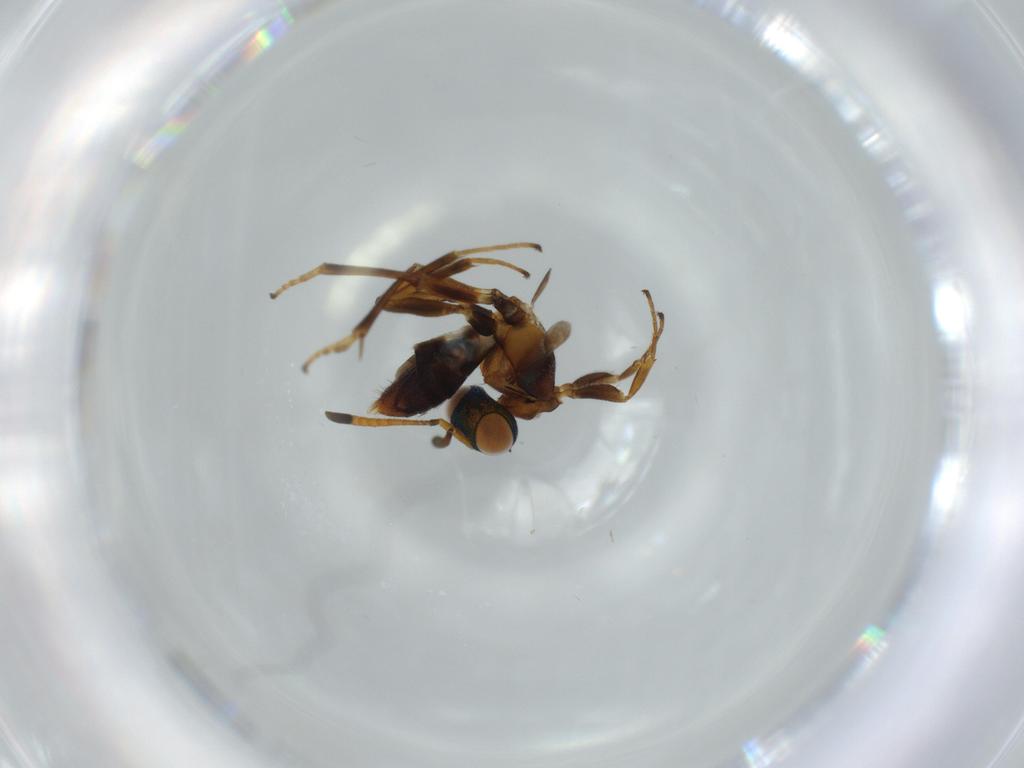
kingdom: Animalia
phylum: Arthropoda
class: Insecta
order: Hymenoptera
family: Eupelmidae
